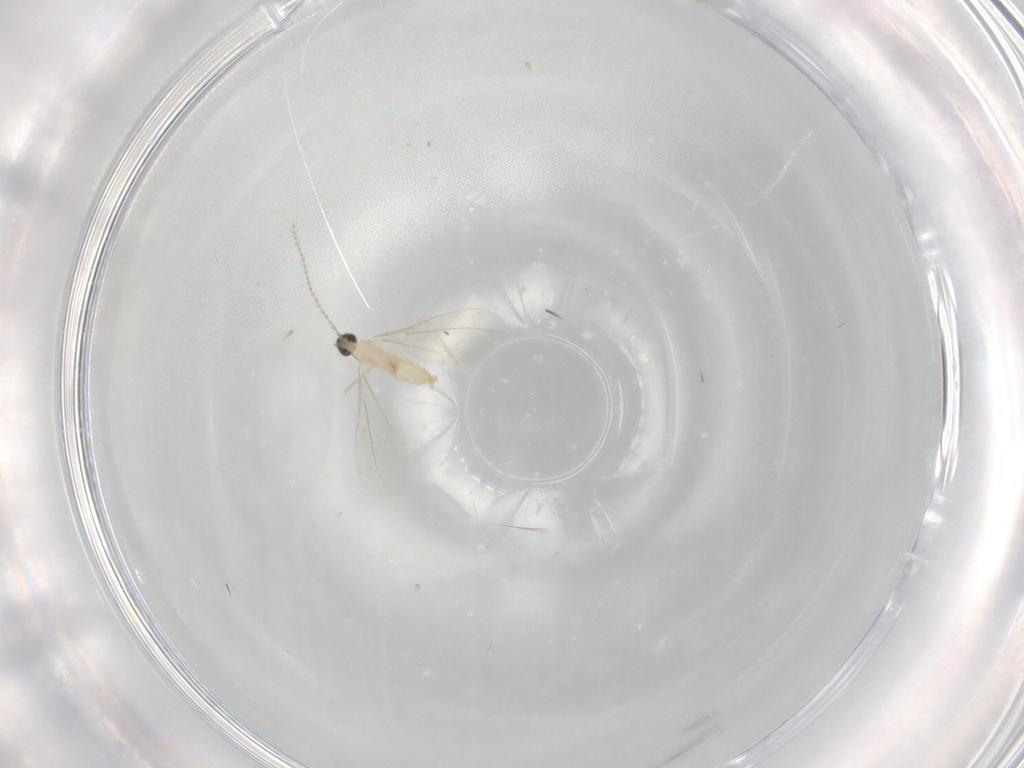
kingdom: Animalia
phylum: Arthropoda
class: Insecta
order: Diptera
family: Cecidomyiidae
